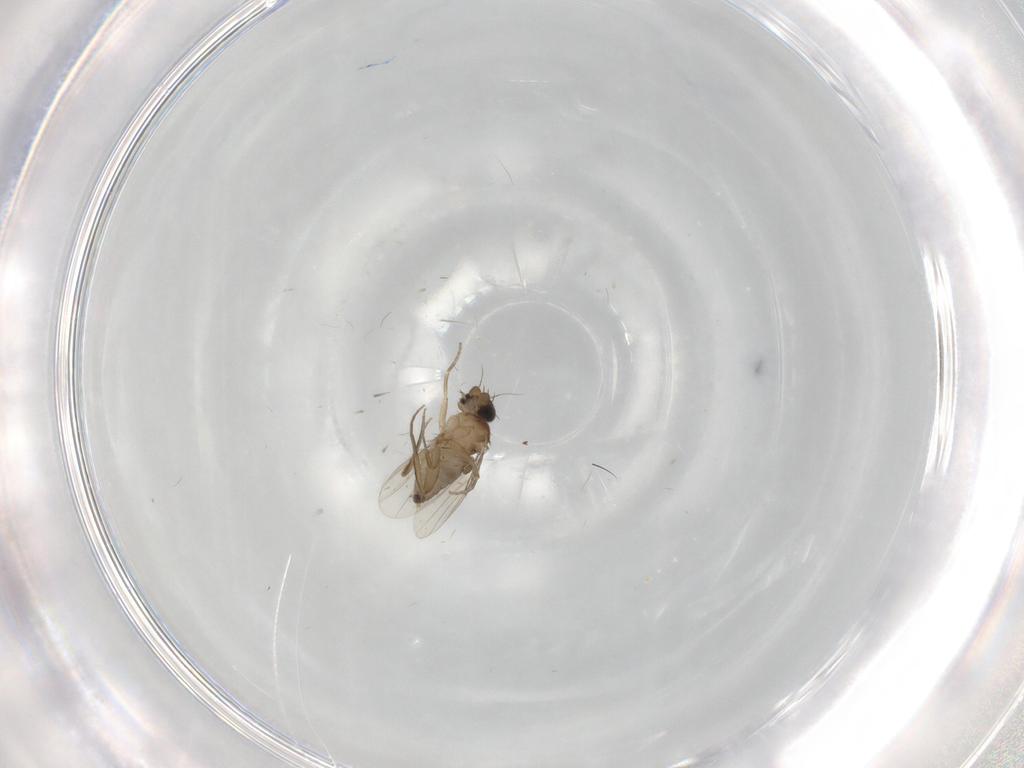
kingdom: Animalia
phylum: Arthropoda
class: Insecta
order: Diptera
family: Phoridae
